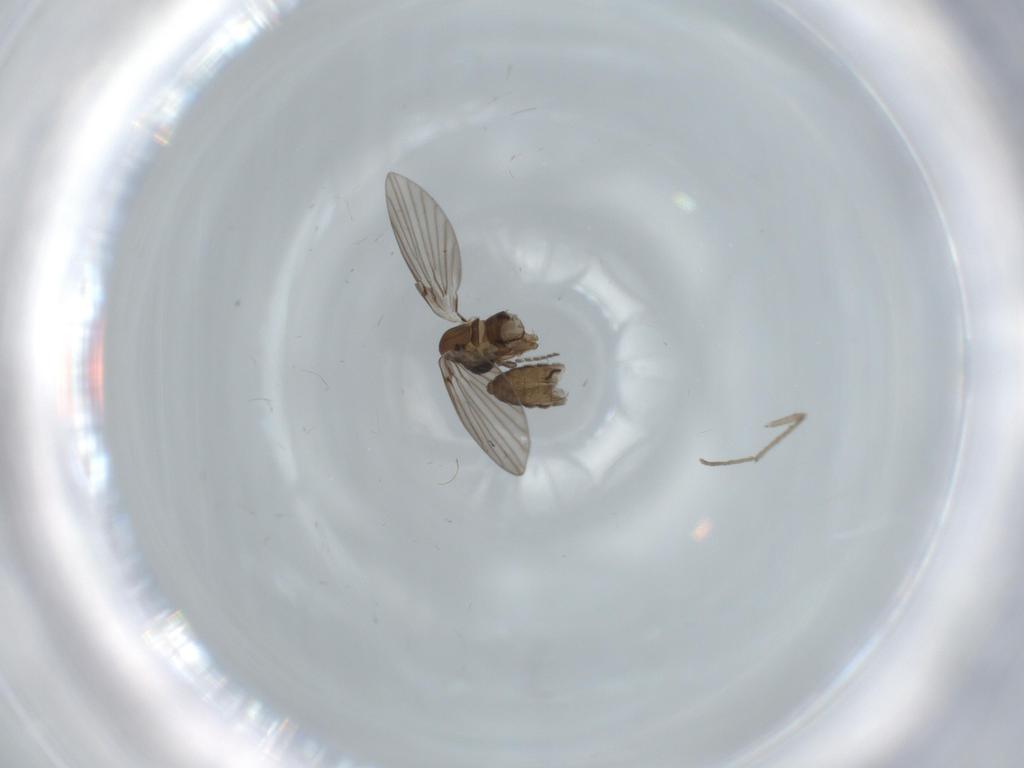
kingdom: Animalia
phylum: Arthropoda
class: Insecta
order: Diptera
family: Psychodidae
